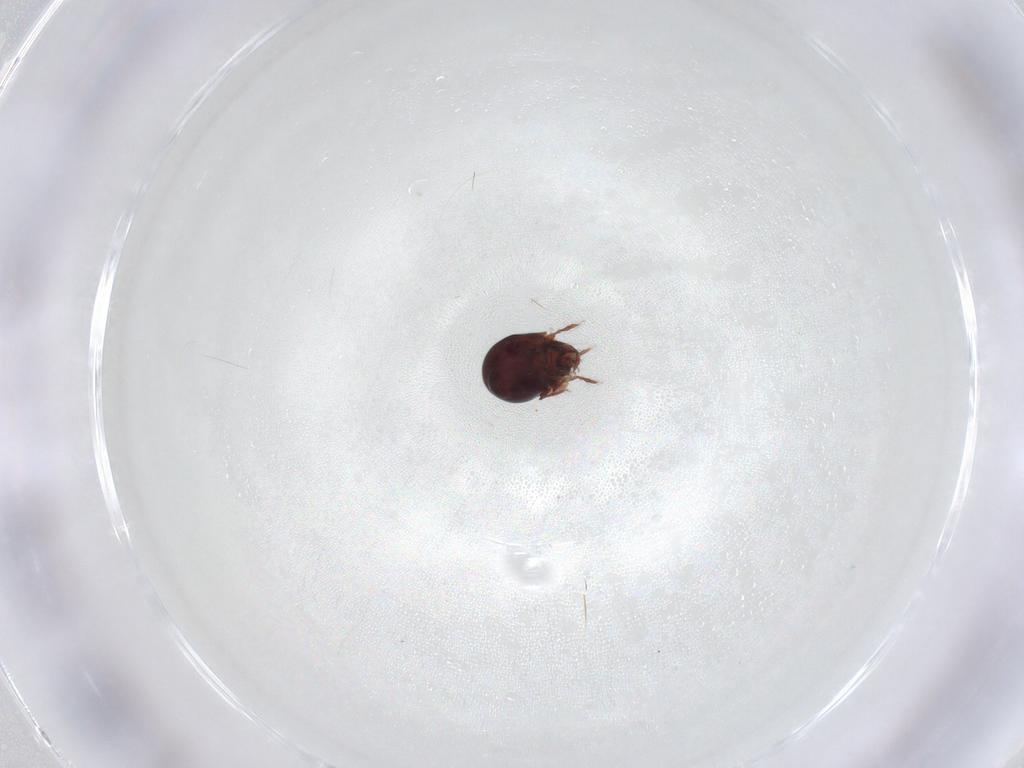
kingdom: Animalia
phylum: Arthropoda
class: Arachnida
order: Sarcoptiformes
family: Humerobatidae
